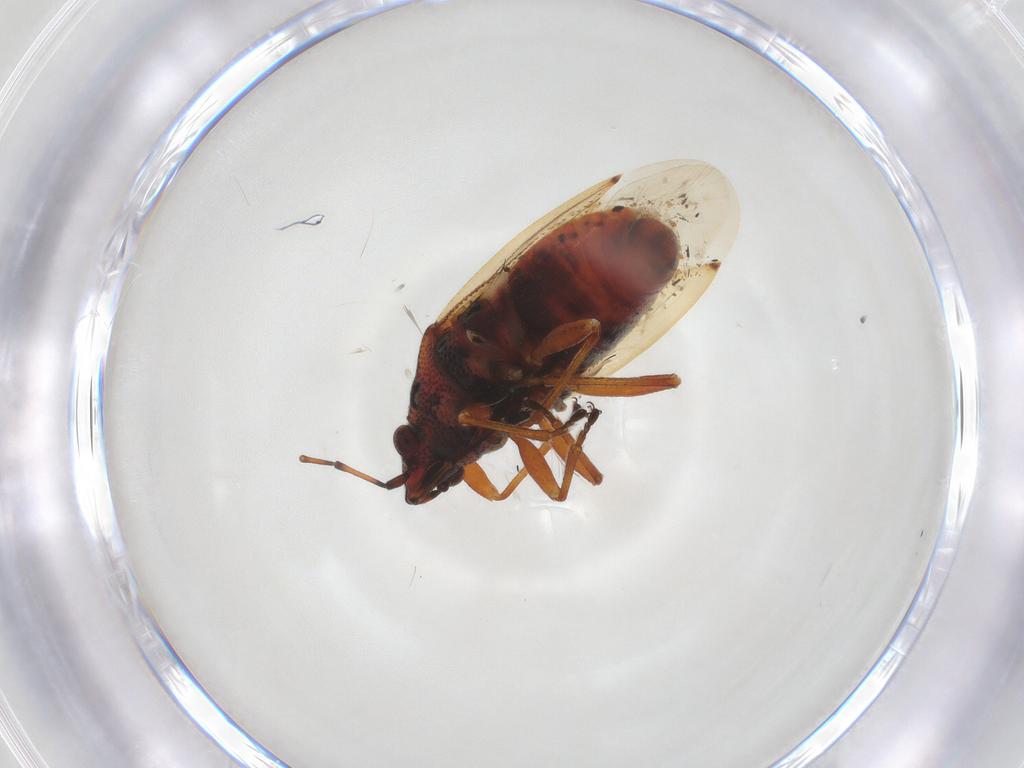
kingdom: Animalia
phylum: Arthropoda
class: Insecta
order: Hemiptera
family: Lygaeidae
